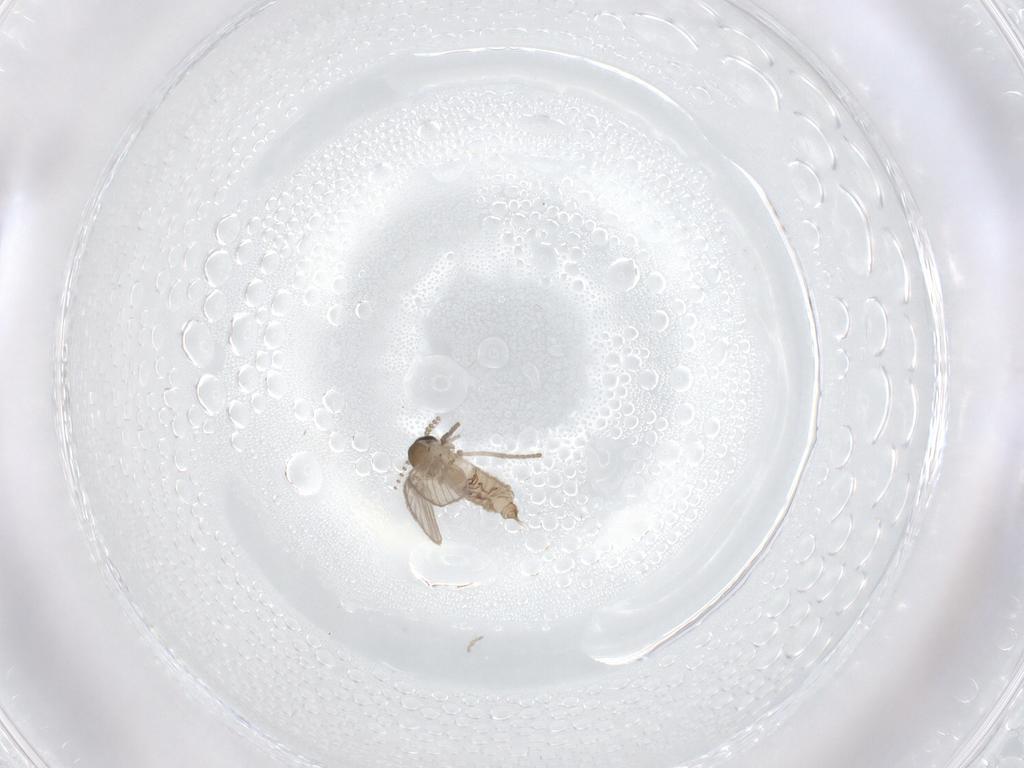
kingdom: Animalia
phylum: Arthropoda
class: Insecta
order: Diptera
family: Psychodidae
